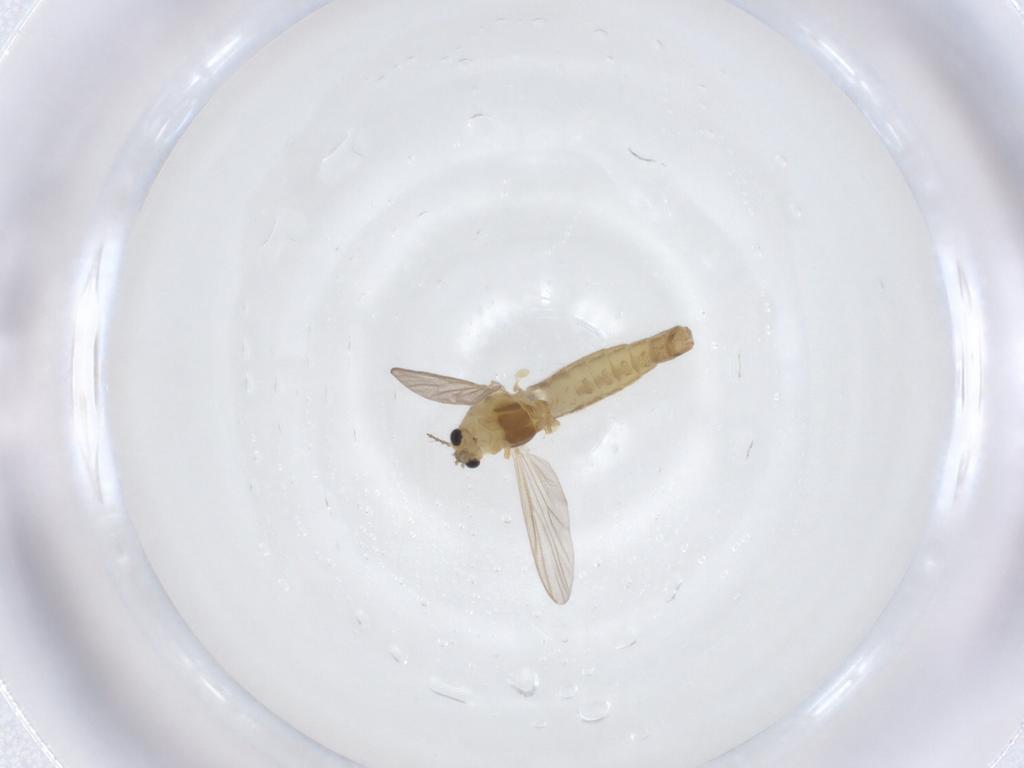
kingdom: Animalia
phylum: Arthropoda
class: Insecta
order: Diptera
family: Chironomidae
